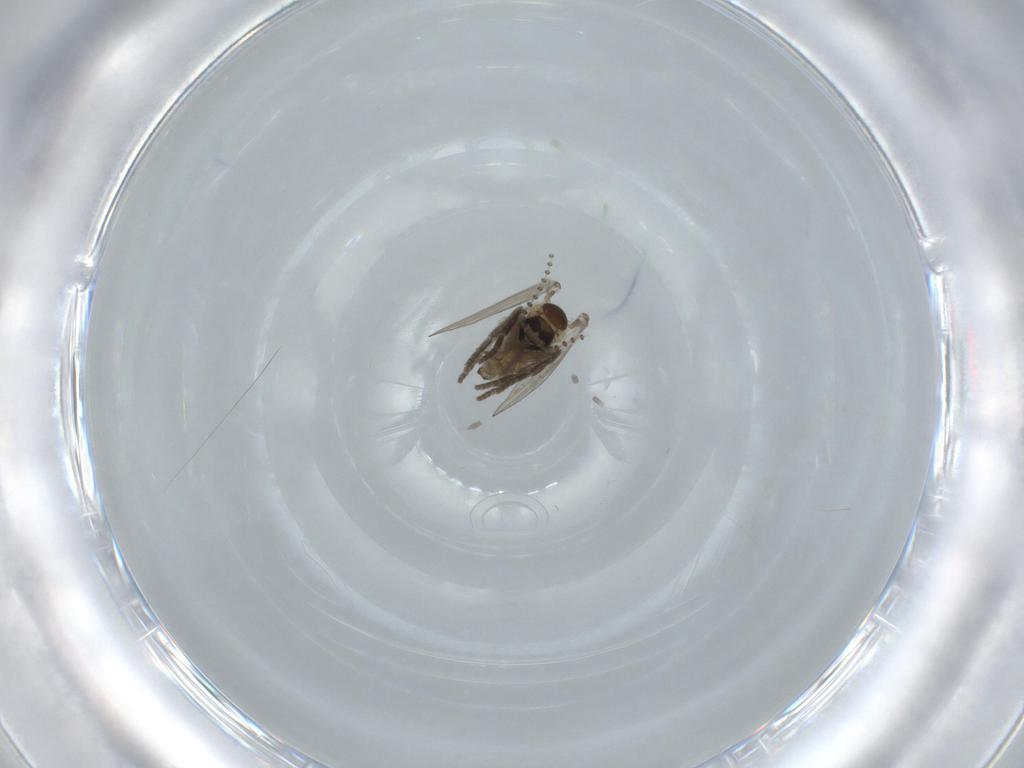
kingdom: Animalia
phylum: Arthropoda
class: Insecta
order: Diptera
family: Psychodidae
